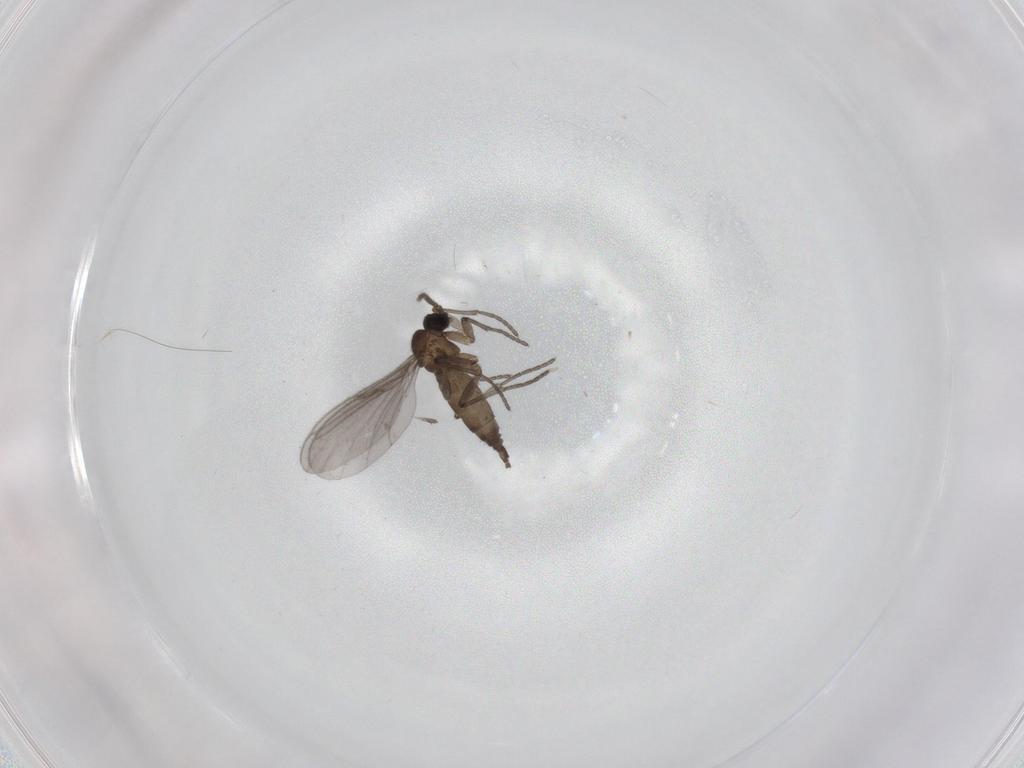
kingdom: Animalia
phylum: Arthropoda
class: Insecta
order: Diptera
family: Sciaridae
